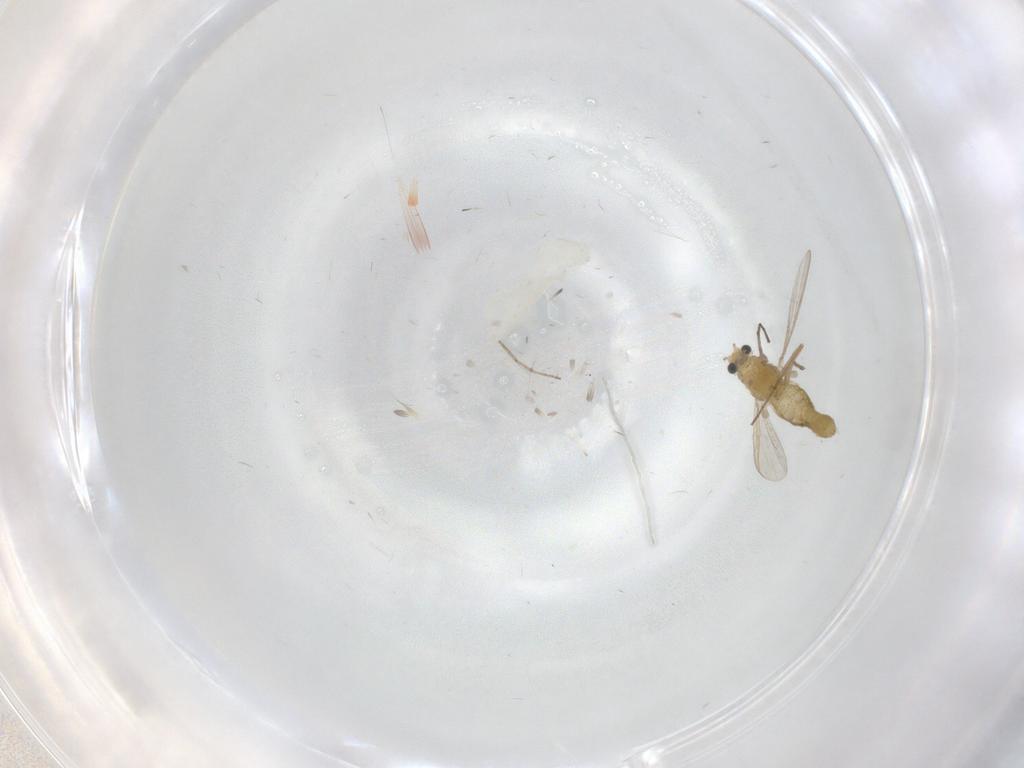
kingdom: Animalia
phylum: Arthropoda
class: Insecta
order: Diptera
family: Chironomidae
